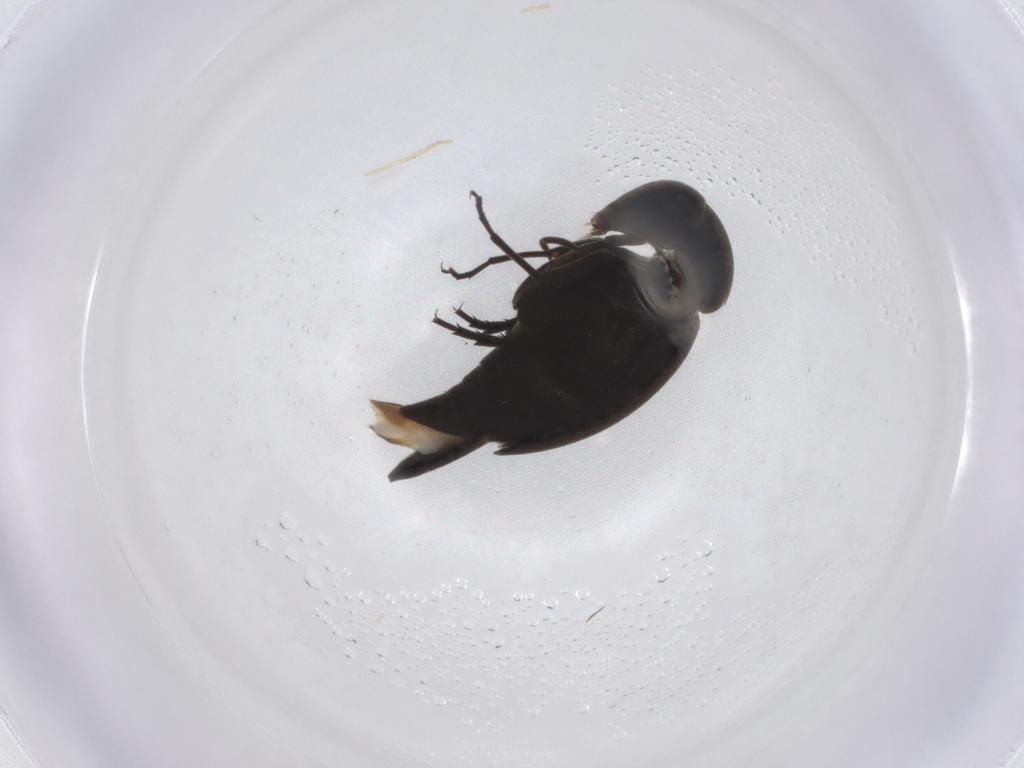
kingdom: Animalia
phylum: Arthropoda
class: Insecta
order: Coleoptera
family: Mordellidae
